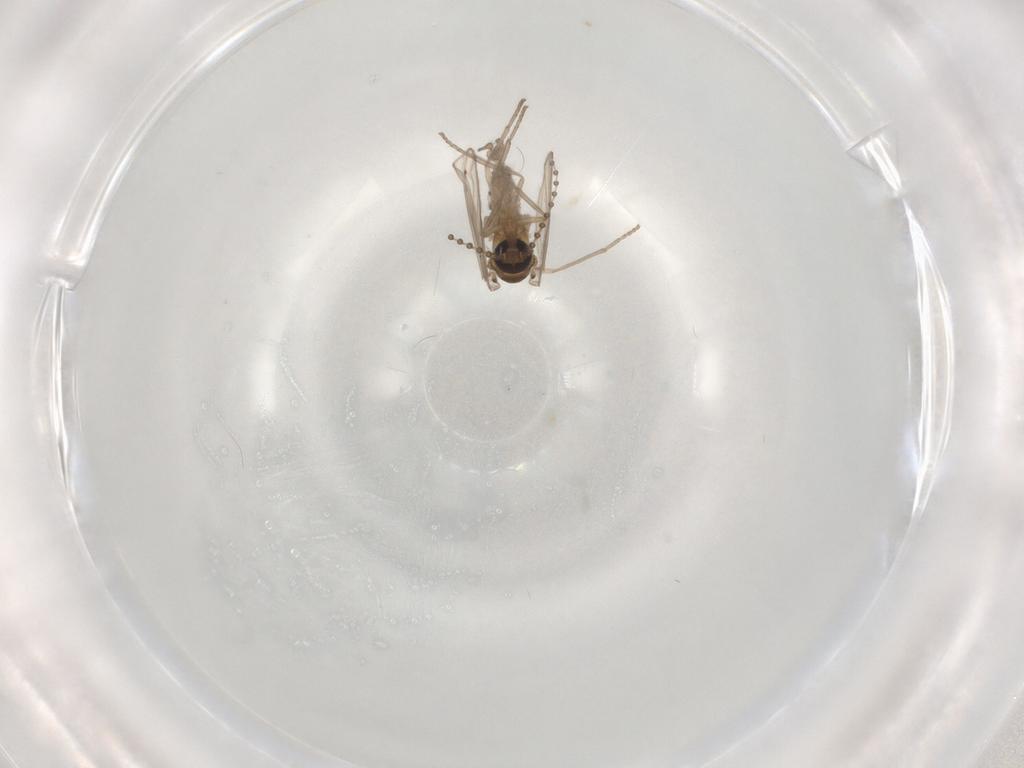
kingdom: Animalia
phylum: Arthropoda
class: Insecta
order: Diptera
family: Psychodidae
